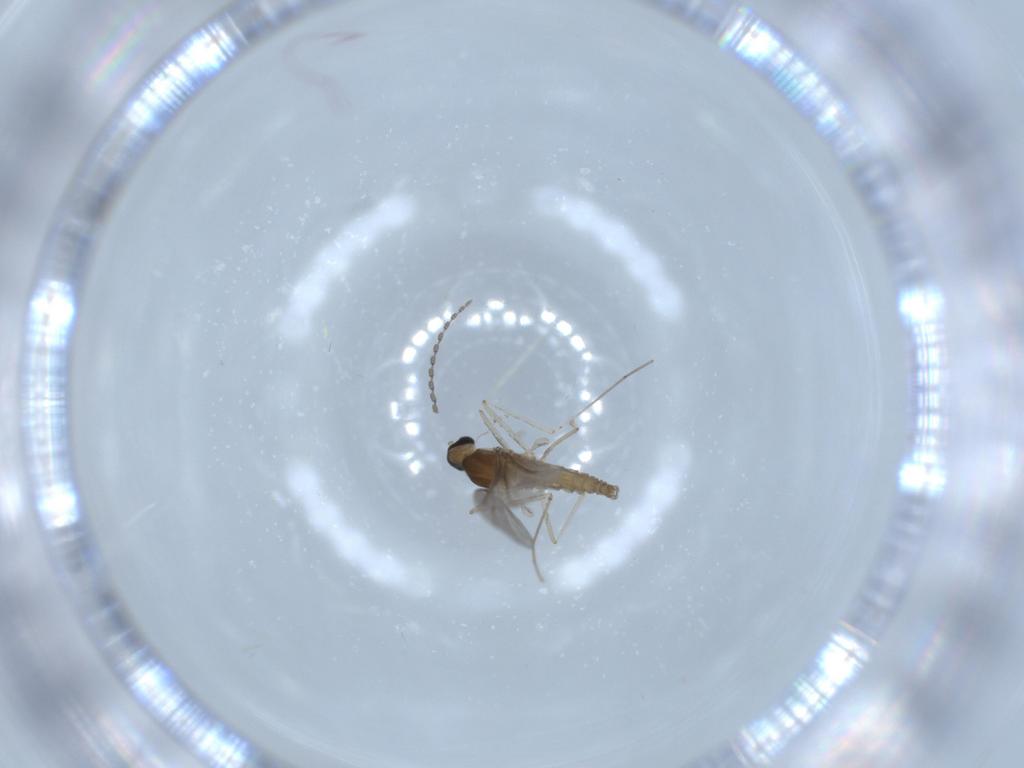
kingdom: Animalia
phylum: Arthropoda
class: Insecta
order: Diptera
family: Cecidomyiidae
